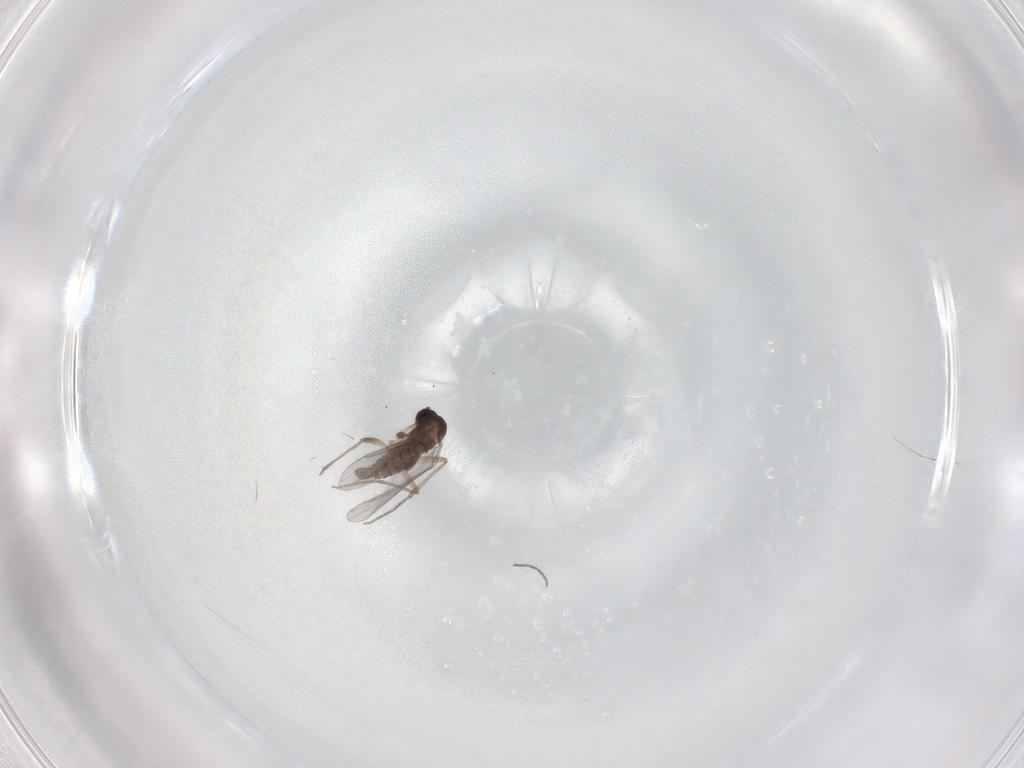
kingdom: Animalia
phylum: Arthropoda
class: Insecta
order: Diptera
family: Sciaridae
